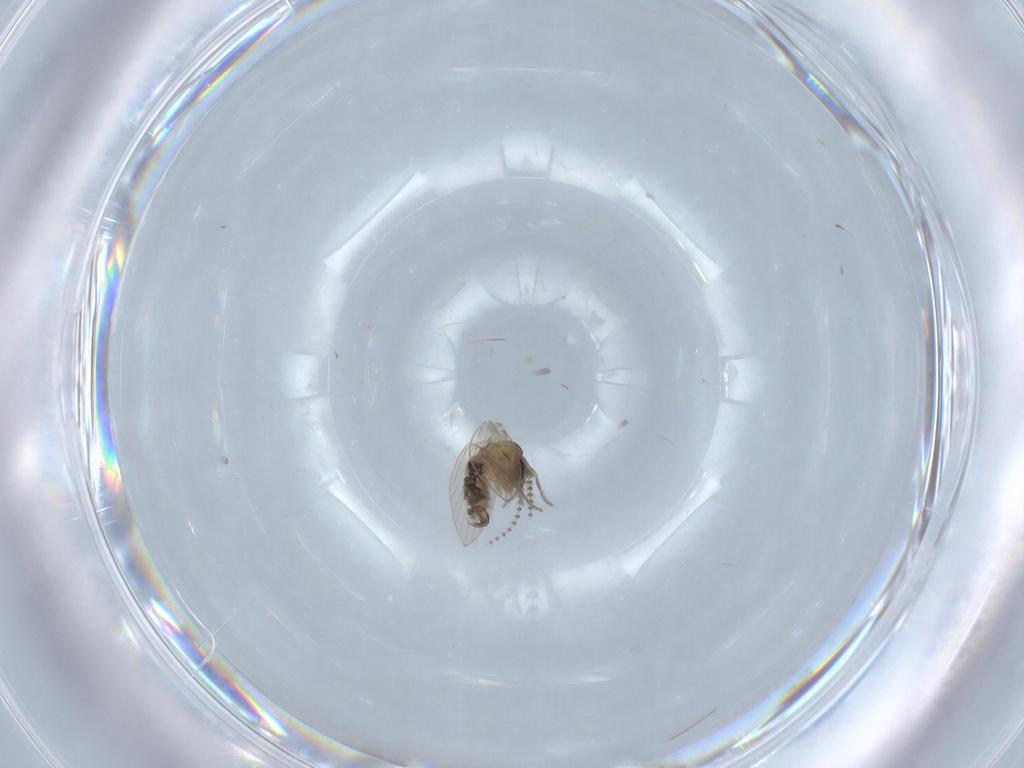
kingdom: Animalia
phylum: Arthropoda
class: Insecta
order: Diptera
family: Psychodidae
